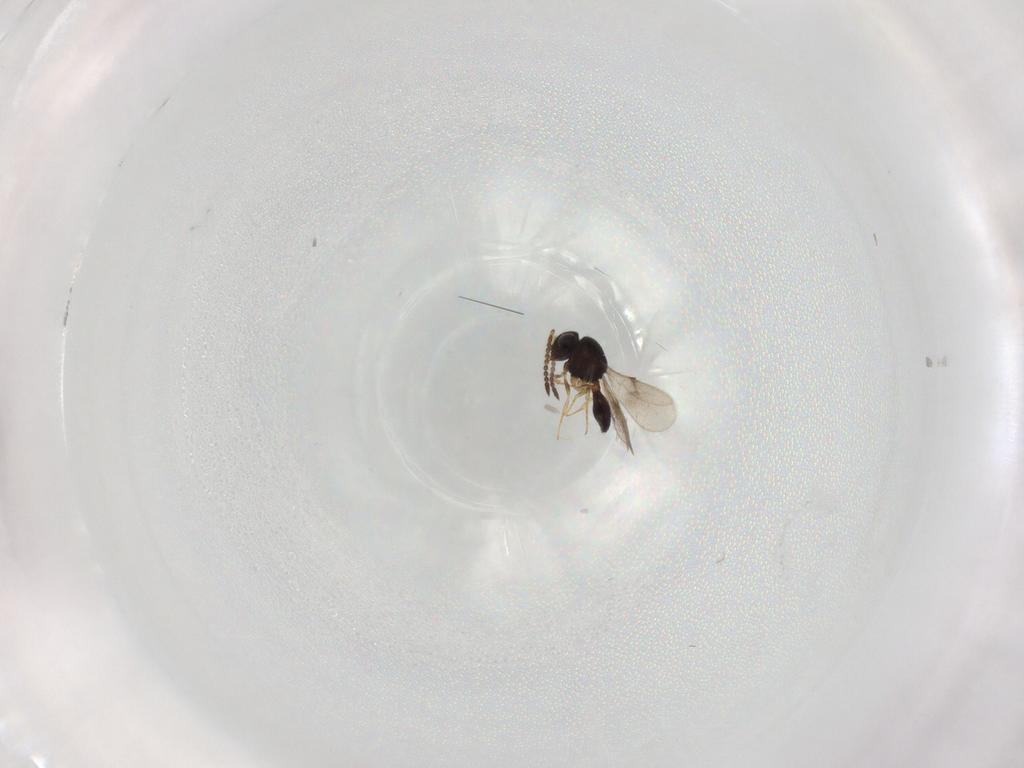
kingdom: Animalia
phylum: Arthropoda
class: Insecta
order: Hymenoptera
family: Scelionidae
